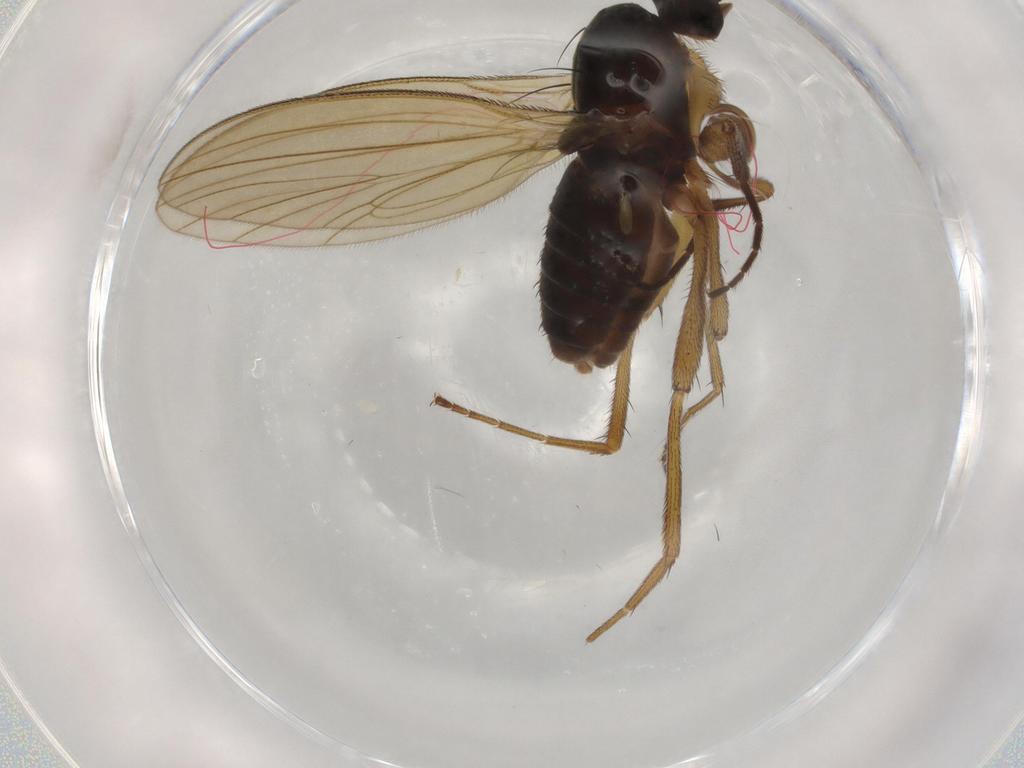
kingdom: Animalia
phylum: Arthropoda
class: Insecta
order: Diptera
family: Lonchopteridae
